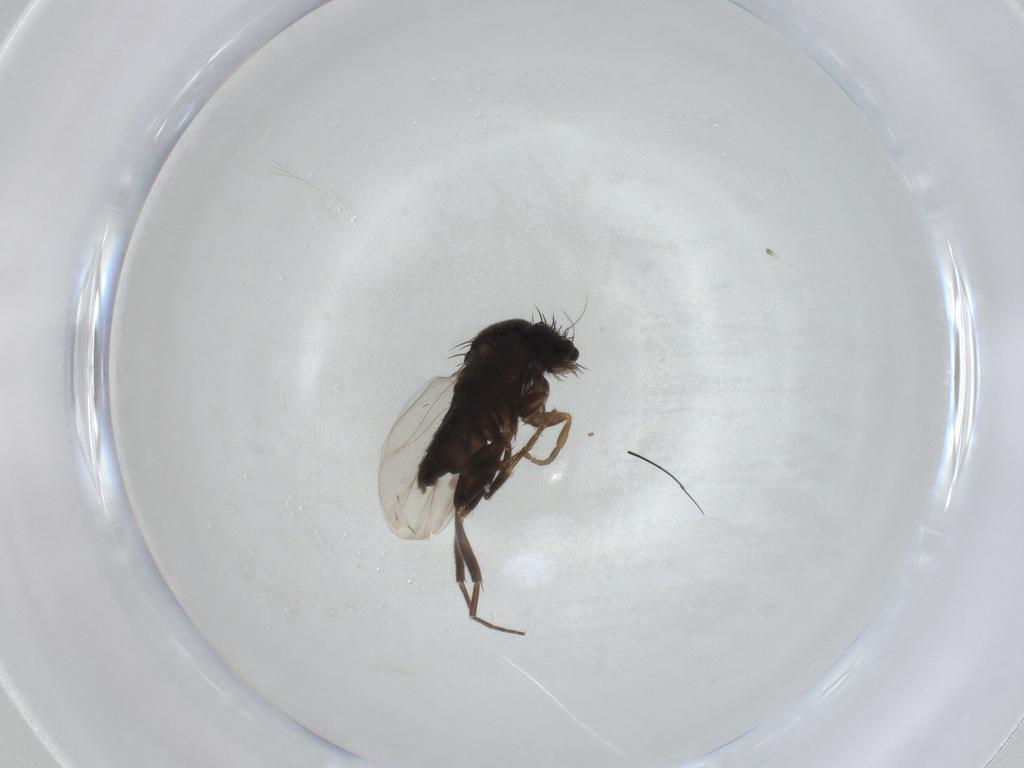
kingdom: Animalia
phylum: Arthropoda
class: Insecta
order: Diptera
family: Phoridae
